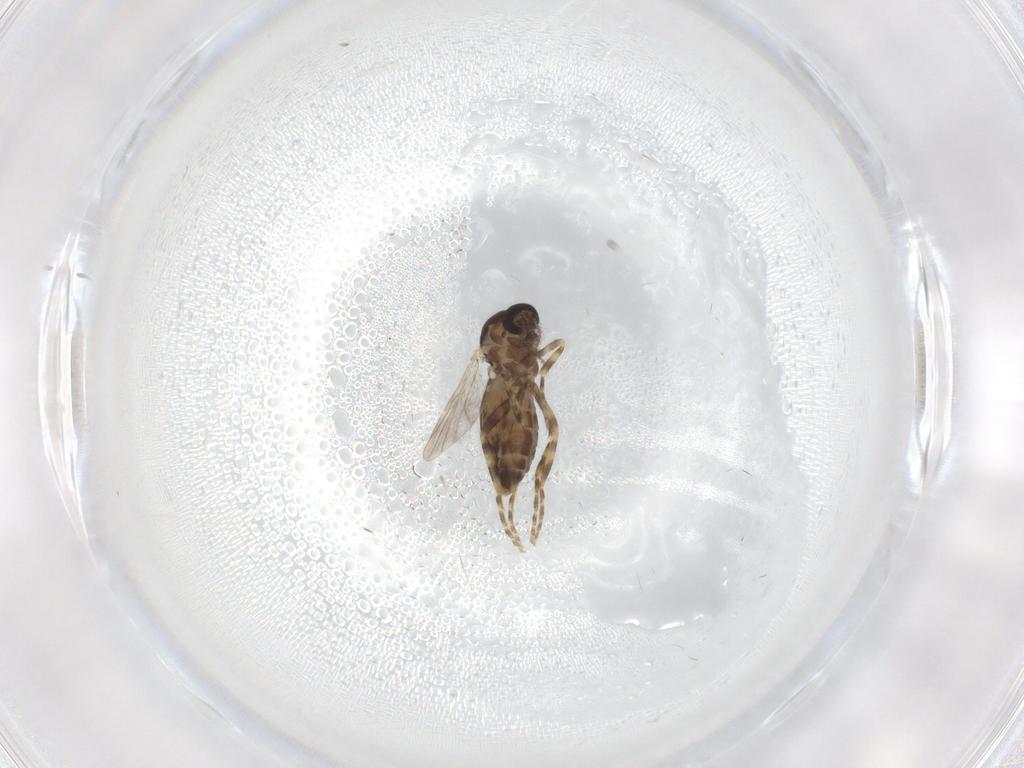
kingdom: Animalia
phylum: Arthropoda
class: Insecta
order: Diptera
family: Ceratopogonidae
